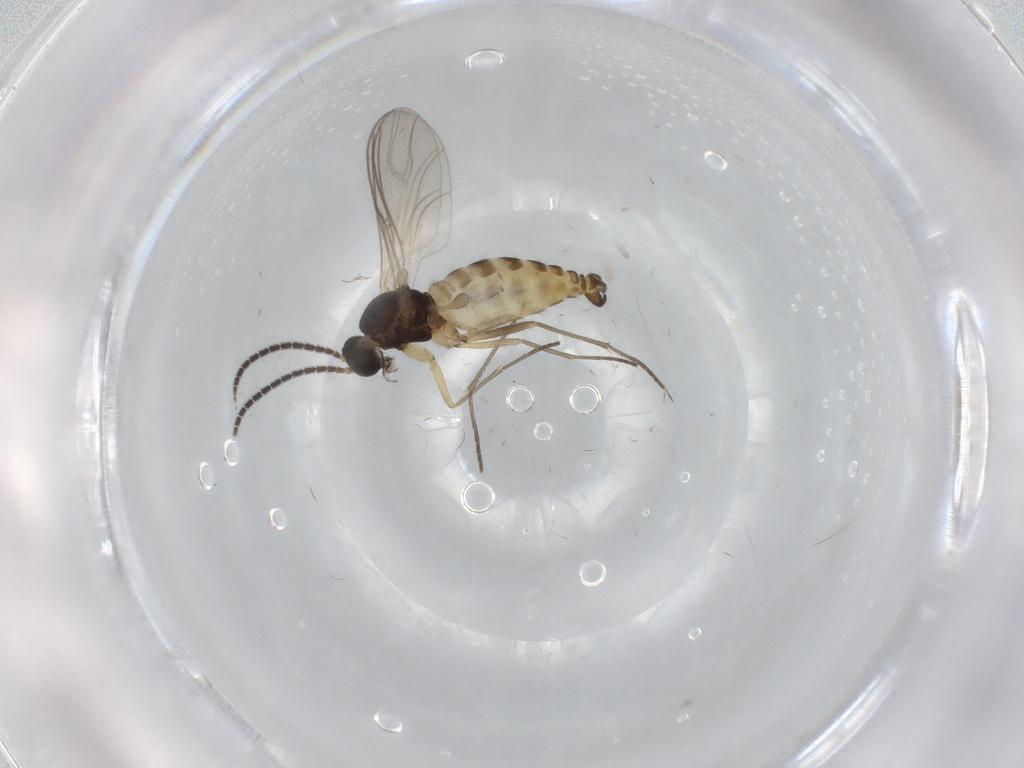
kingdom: Animalia
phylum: Arthropoda
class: Insecta
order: Diptera
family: Sciaridae
